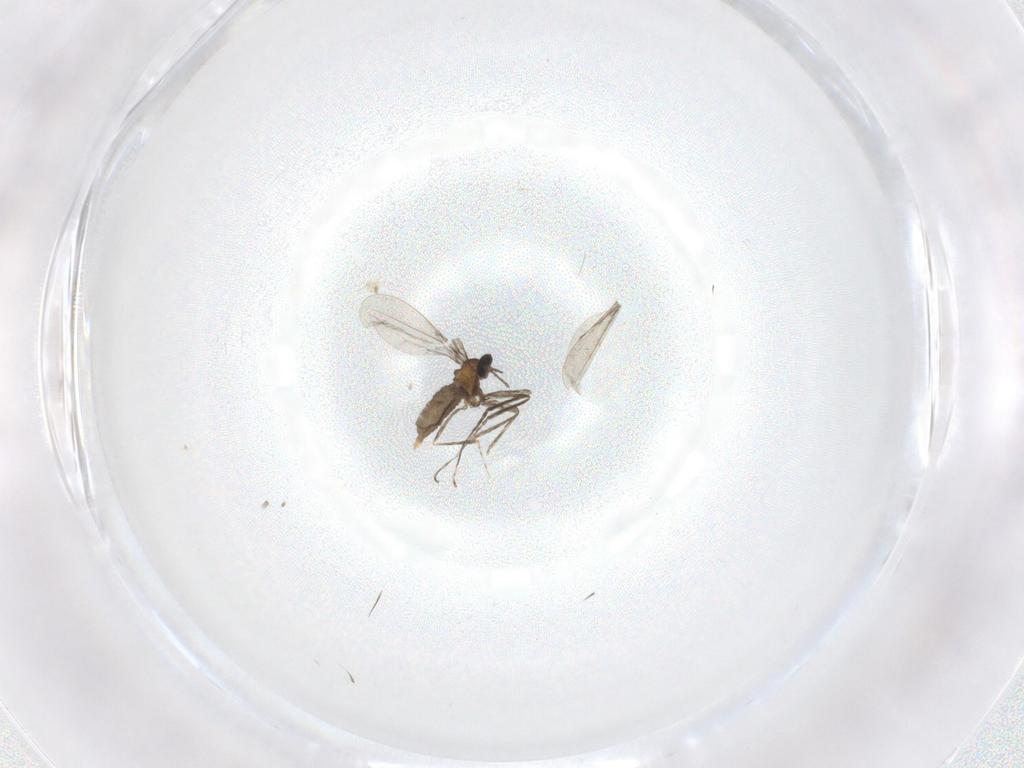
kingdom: Animalia
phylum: Arthropoda
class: Insecta
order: Diptera
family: Cecidomyiidae
